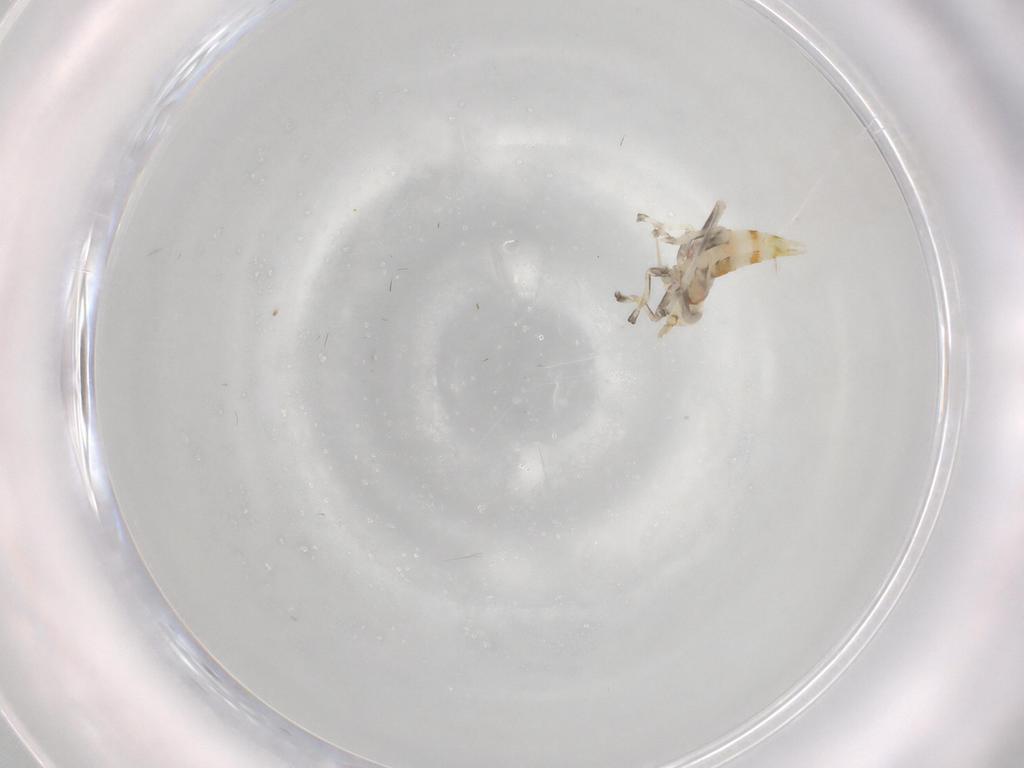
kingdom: Animalia
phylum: Arthropoda
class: Insecta
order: Hemiptera
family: Cicadellidae
